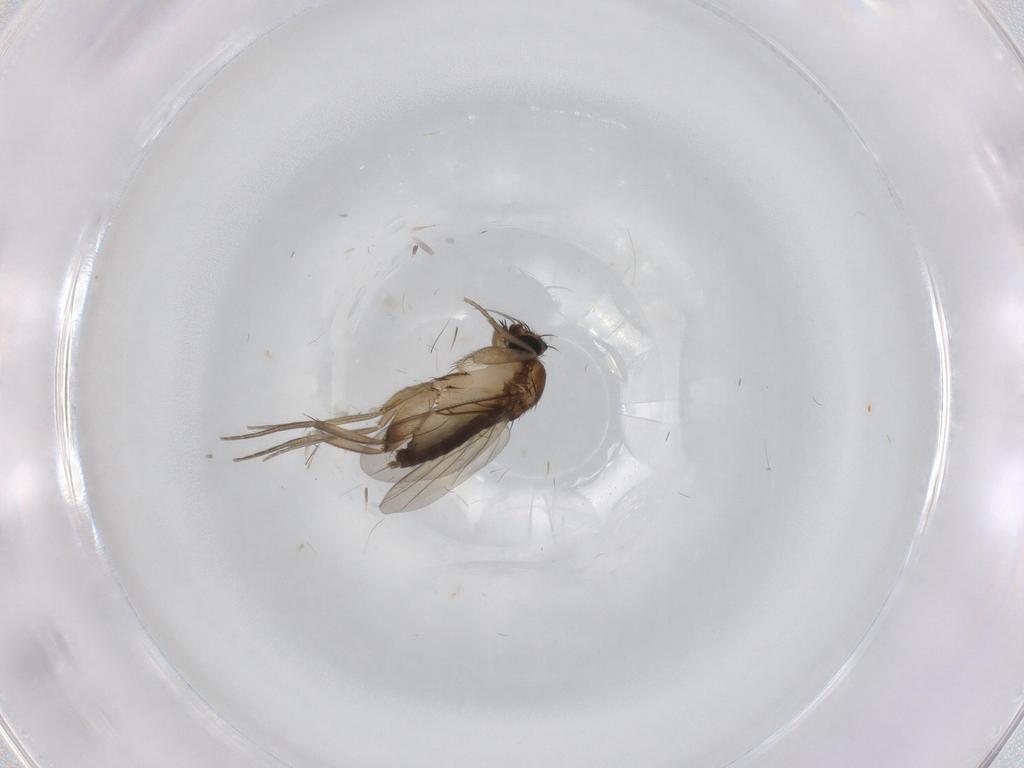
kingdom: Animalia
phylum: Arthropoda
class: Insecta
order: Diptera
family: Phoridae
